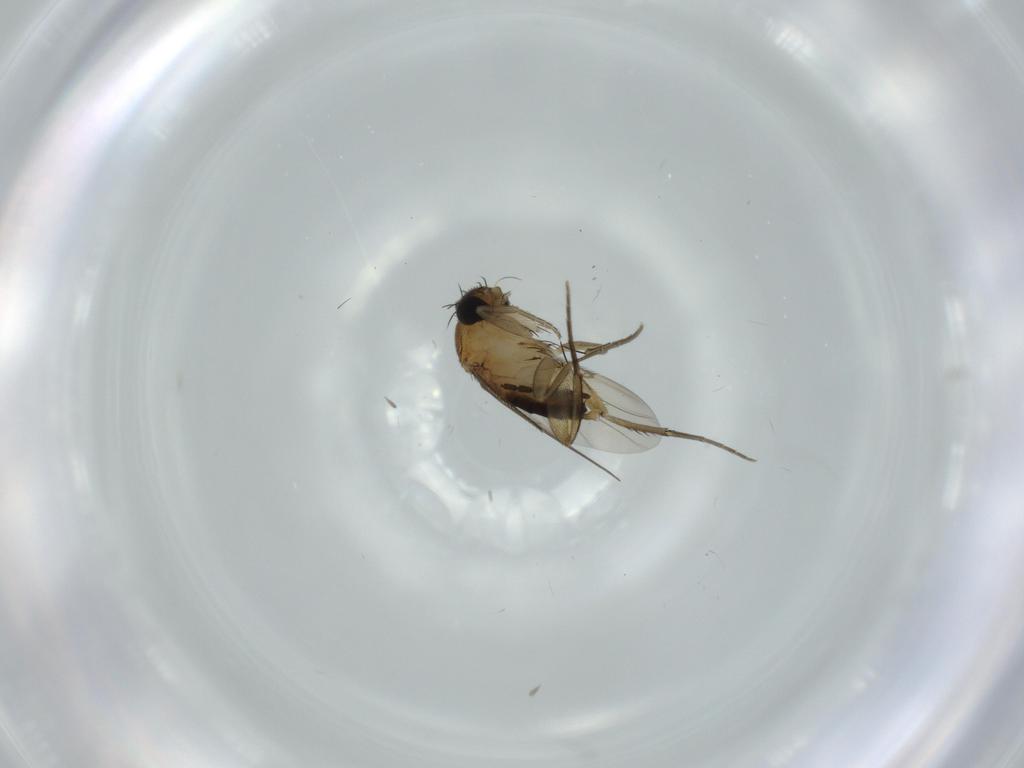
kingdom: Animalia
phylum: Arthropoda
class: Insecta
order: Diptera
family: Phoridae
